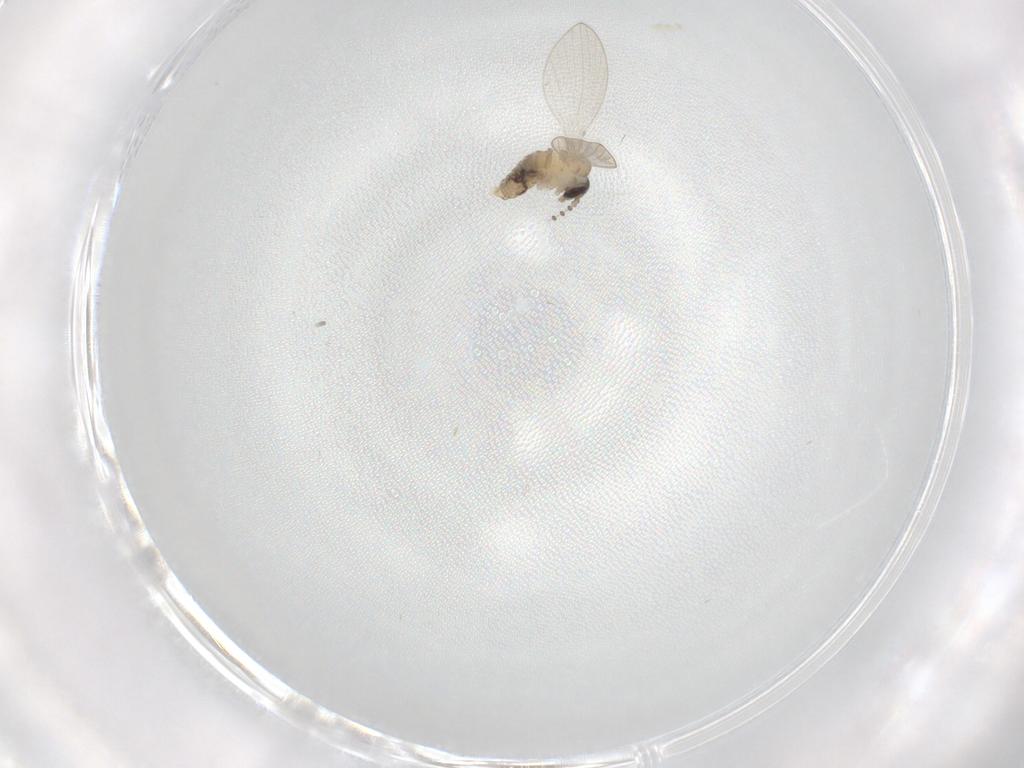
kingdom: Animalia
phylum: Arthropoda
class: Insecta
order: Diptera
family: Psychodidae
